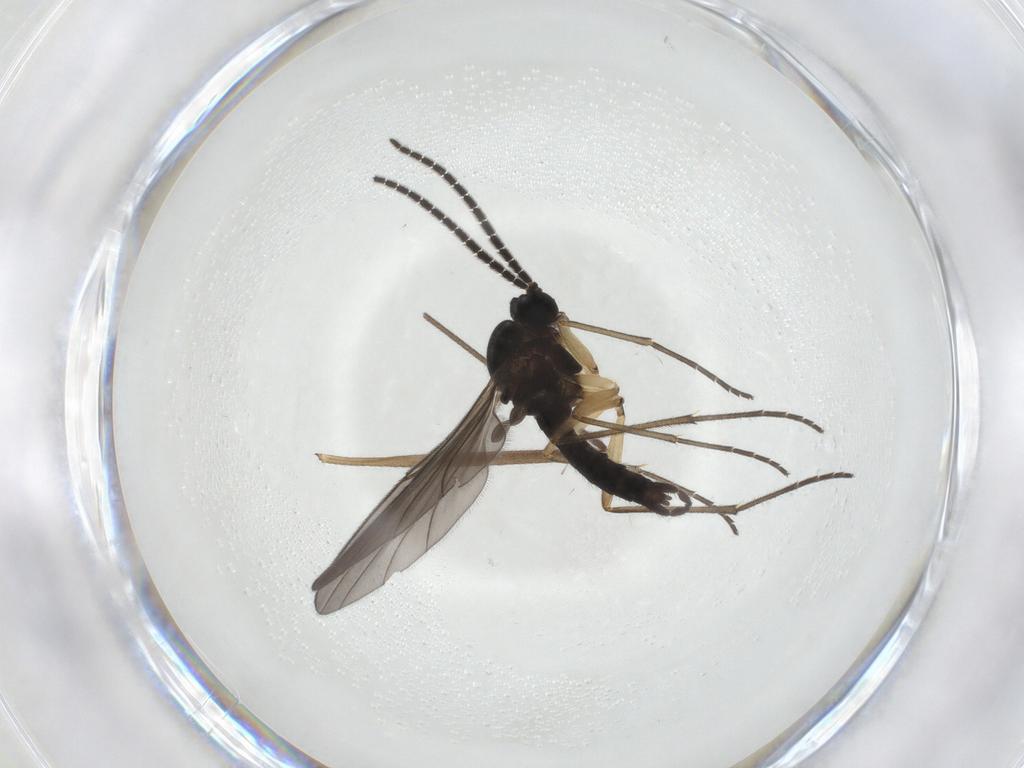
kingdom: Animalia
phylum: Arthropoda
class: Insecta
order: Diptera
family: Sciaridae
